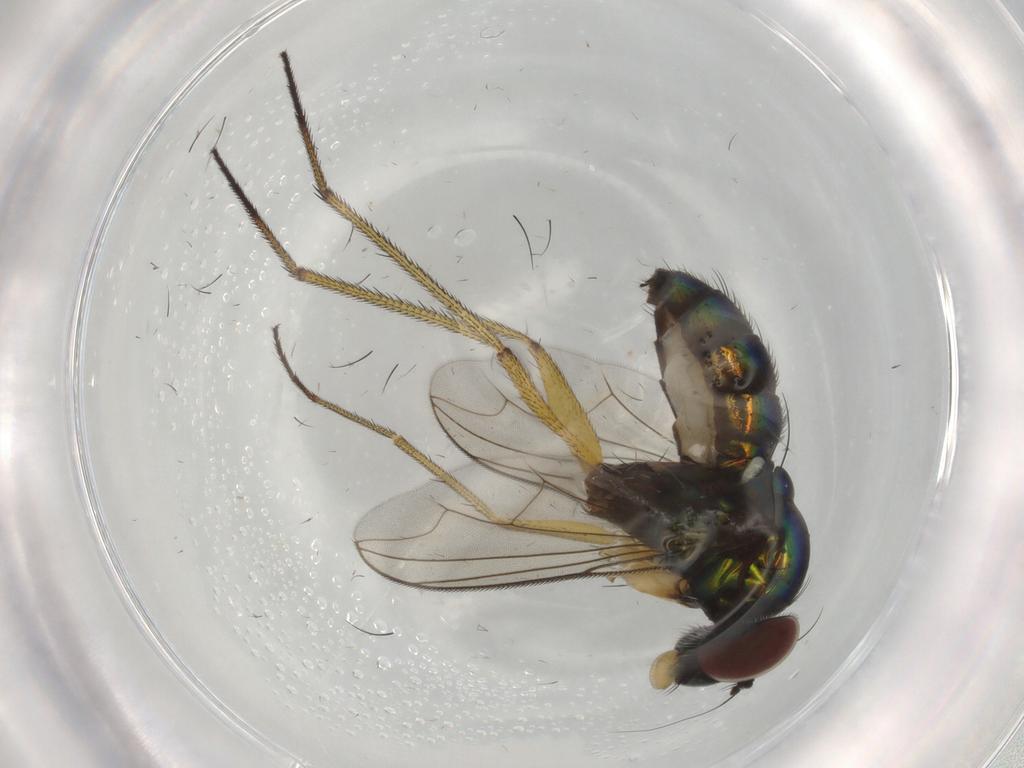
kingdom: Animalia
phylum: Arthropoda
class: Insecta
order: Diptera
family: Dolichopodidae
